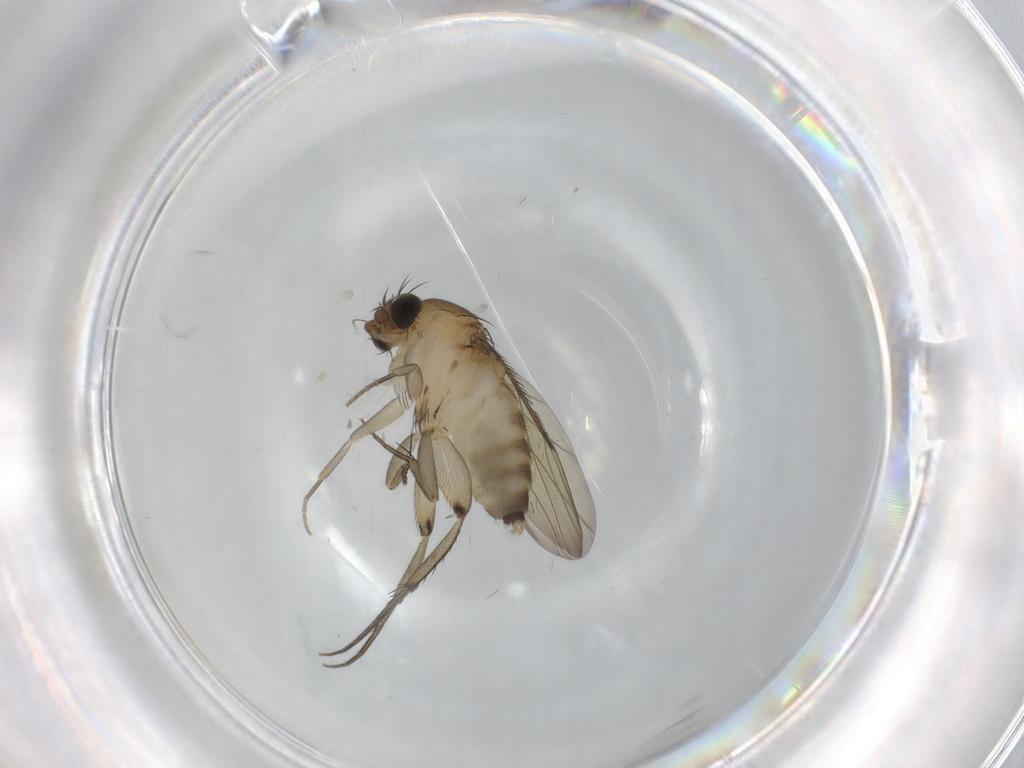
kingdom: Animalia
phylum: Arthropoda
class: Insecta
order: Diptera
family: Phoridae
